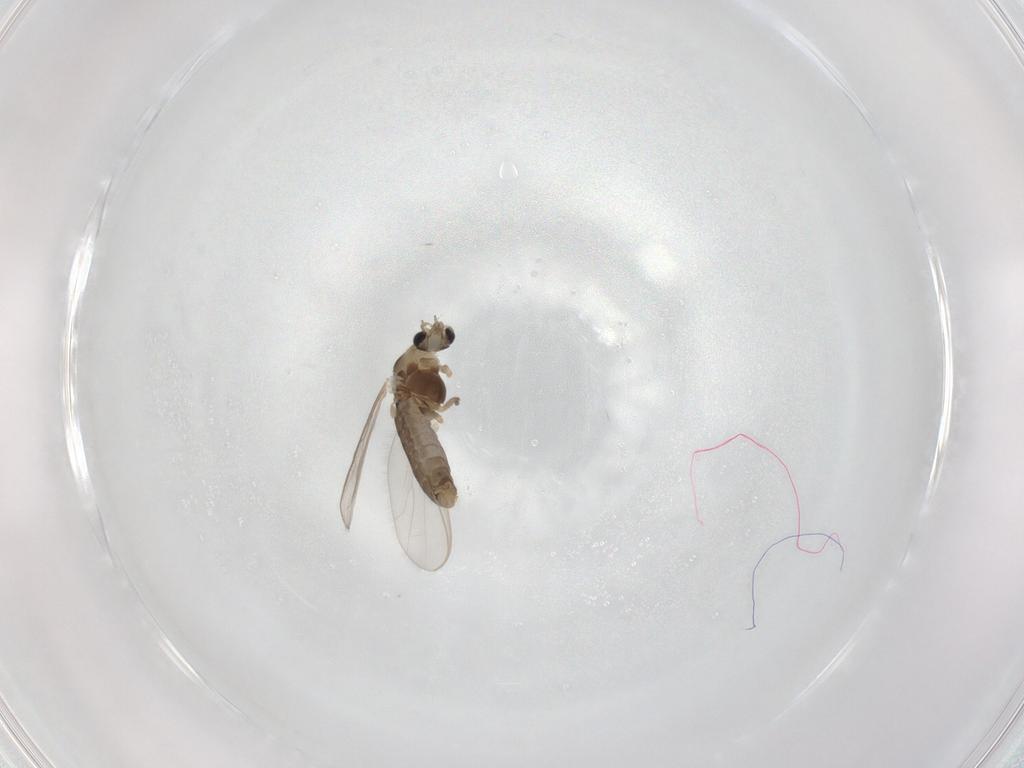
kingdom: Animalia
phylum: Arthropoda
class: Insecta
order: Diptera
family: Chironomidae
